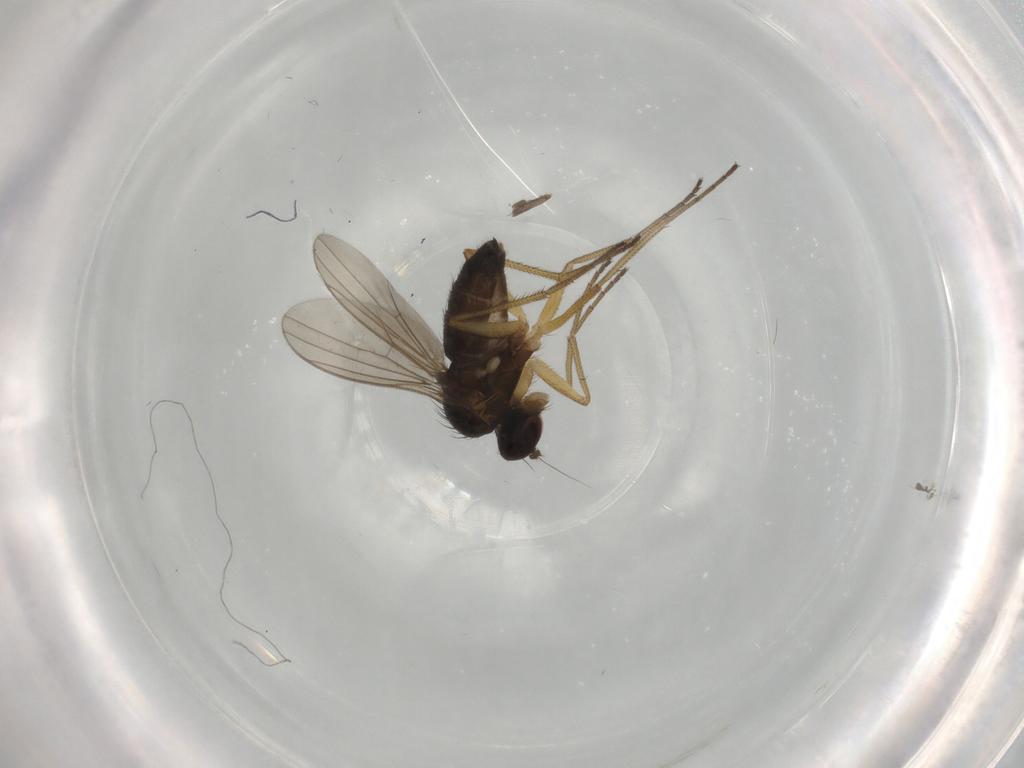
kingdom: Animalia
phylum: Arthropoda
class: Insecta
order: Diptera
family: Dolichopodidae
